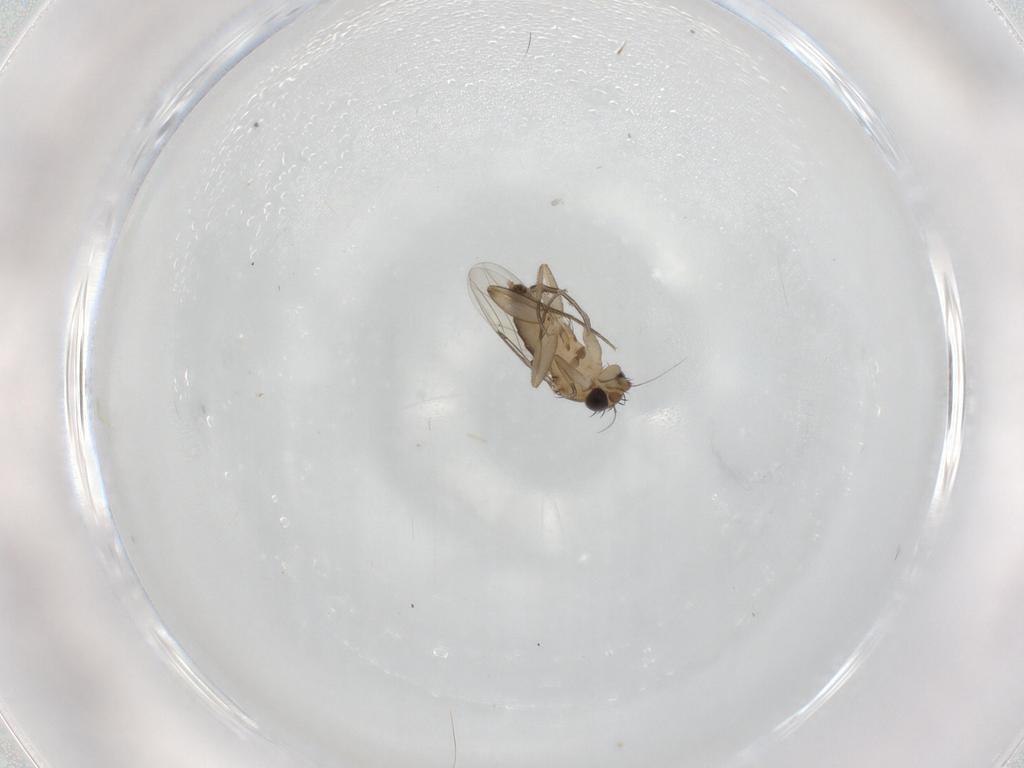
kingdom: Animalia
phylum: Arthropoda
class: Insecta
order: Diptera
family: Phoridae
